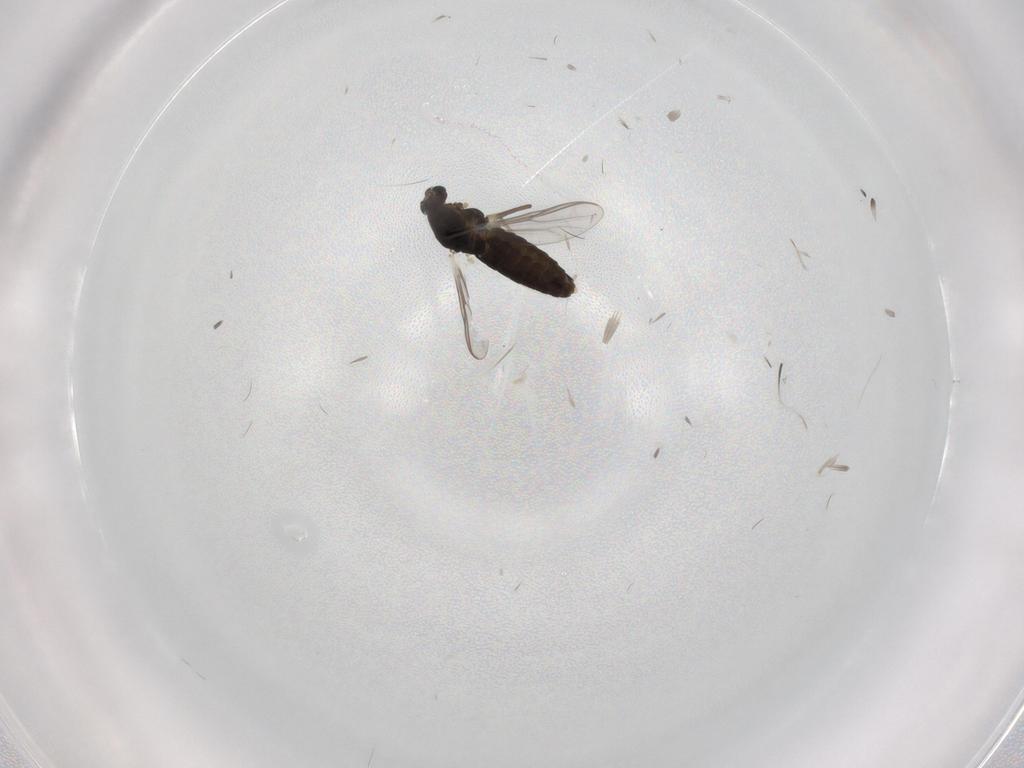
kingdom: Animalia
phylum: Arthropoda
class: Insecta
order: Diptera
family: Chironomidae
